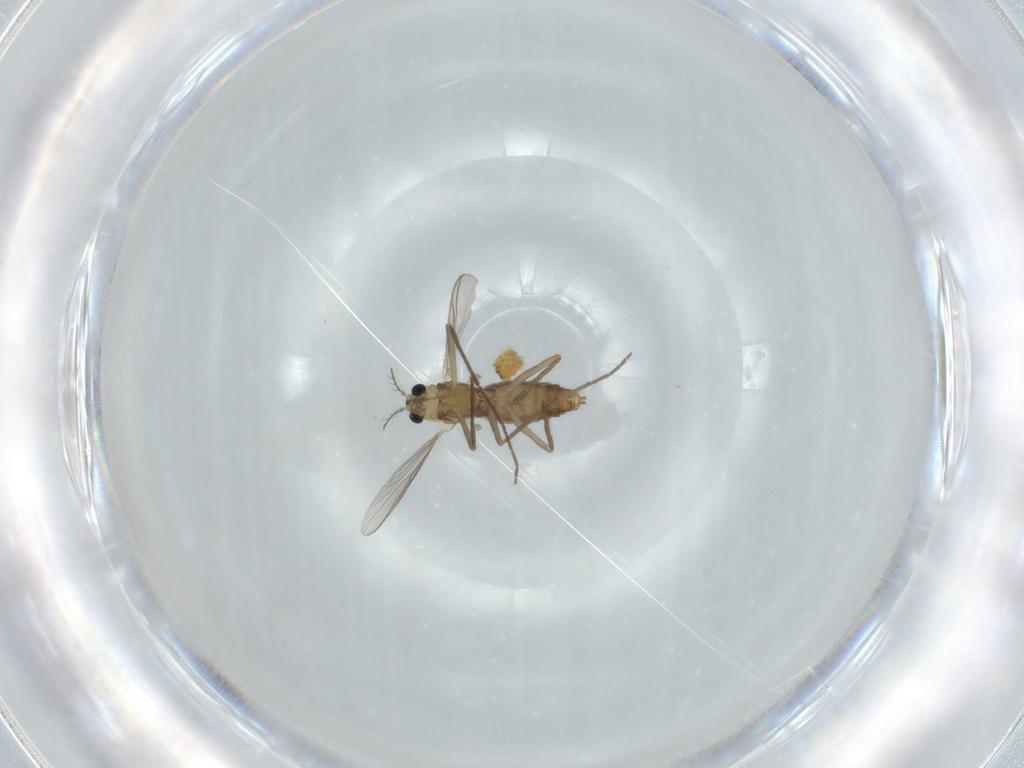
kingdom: Animalia
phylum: Arthropoda
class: Insecta
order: Diptera
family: Chironomidae
